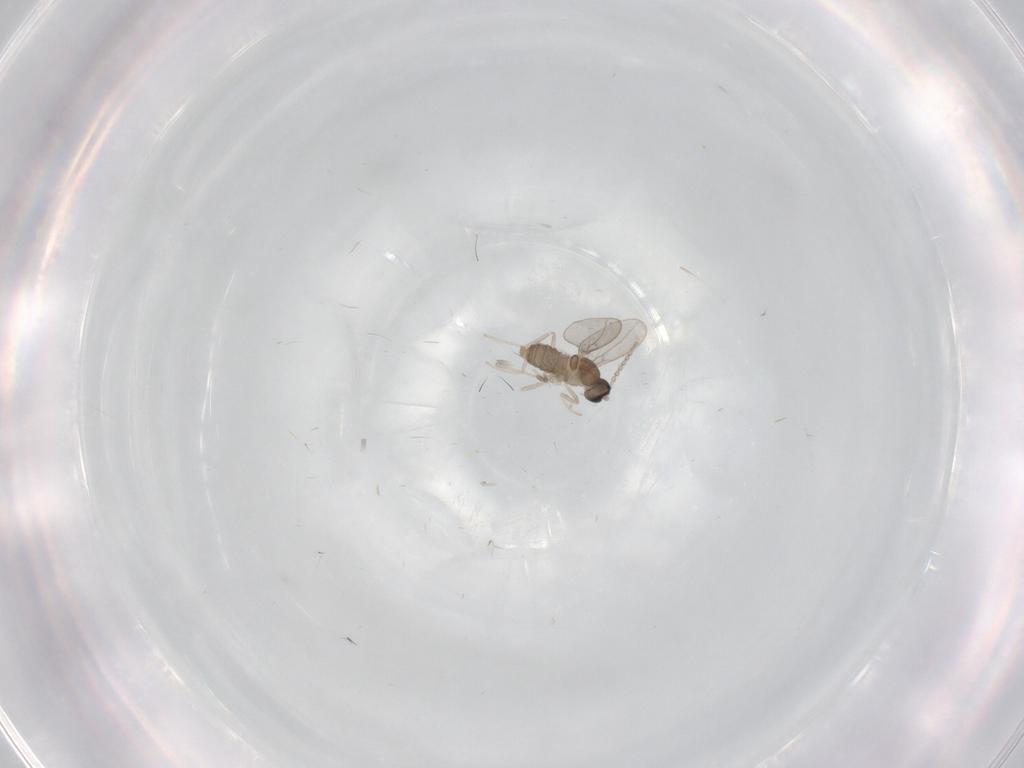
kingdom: Animalia
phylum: Arthropoda
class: Insecta
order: Diptera
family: Cecidomyiidae
